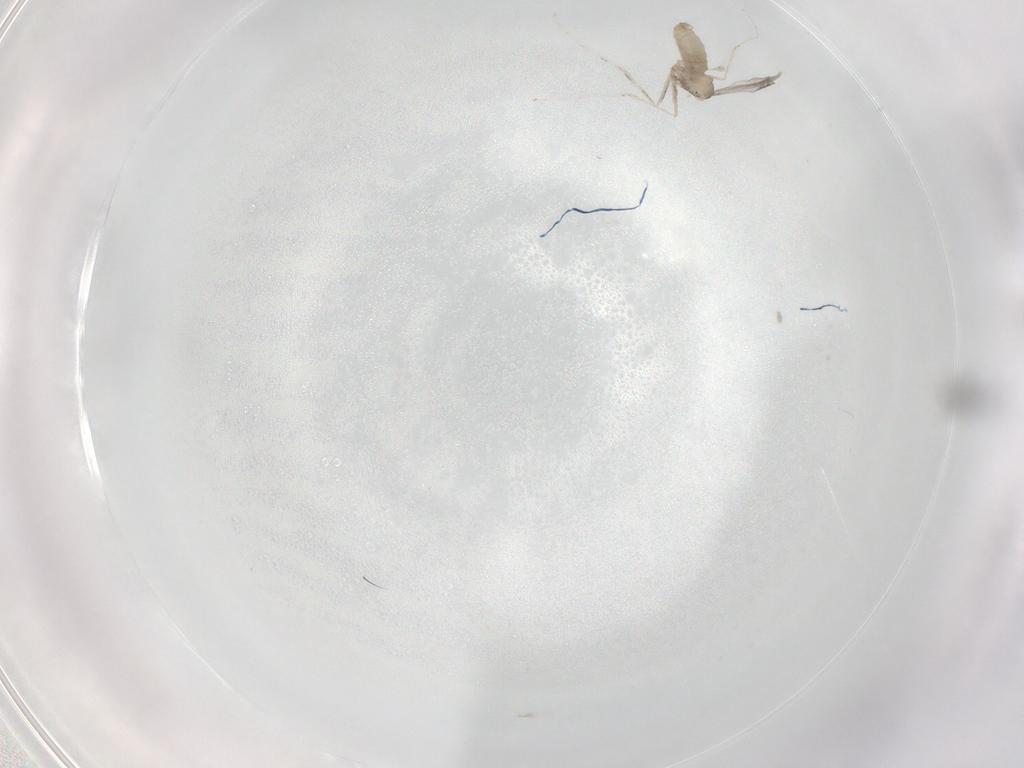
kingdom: Animalia
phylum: Arthropoda
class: Insecta
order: Diptera
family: Cecidomyiidae
